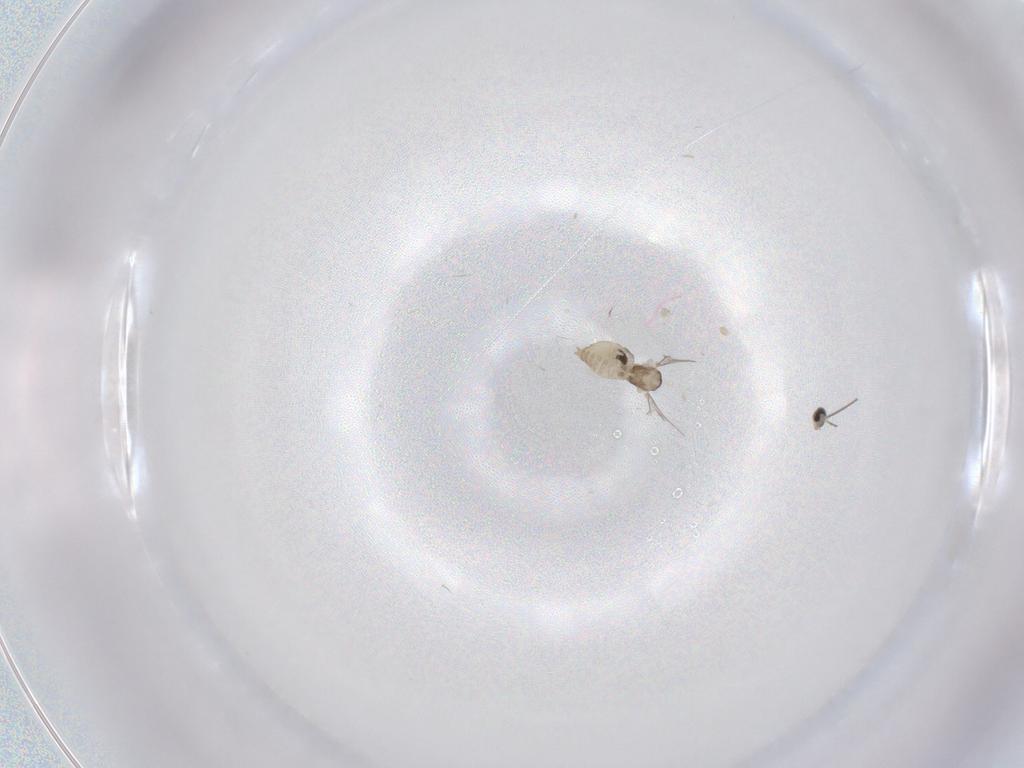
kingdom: Animalia
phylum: Arthropoda
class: Insecta
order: Diptera
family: Cecidomyiidae
